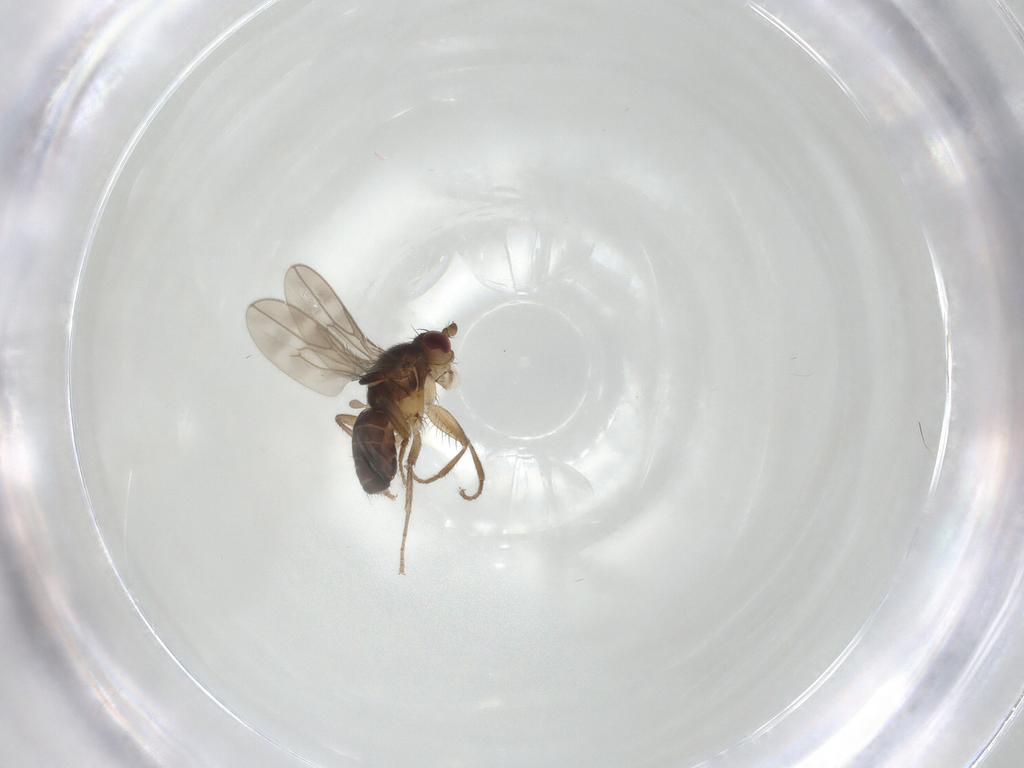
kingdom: Animalia
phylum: Arthropoda
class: Insecta
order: Diptera
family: Sphaeroceridae
